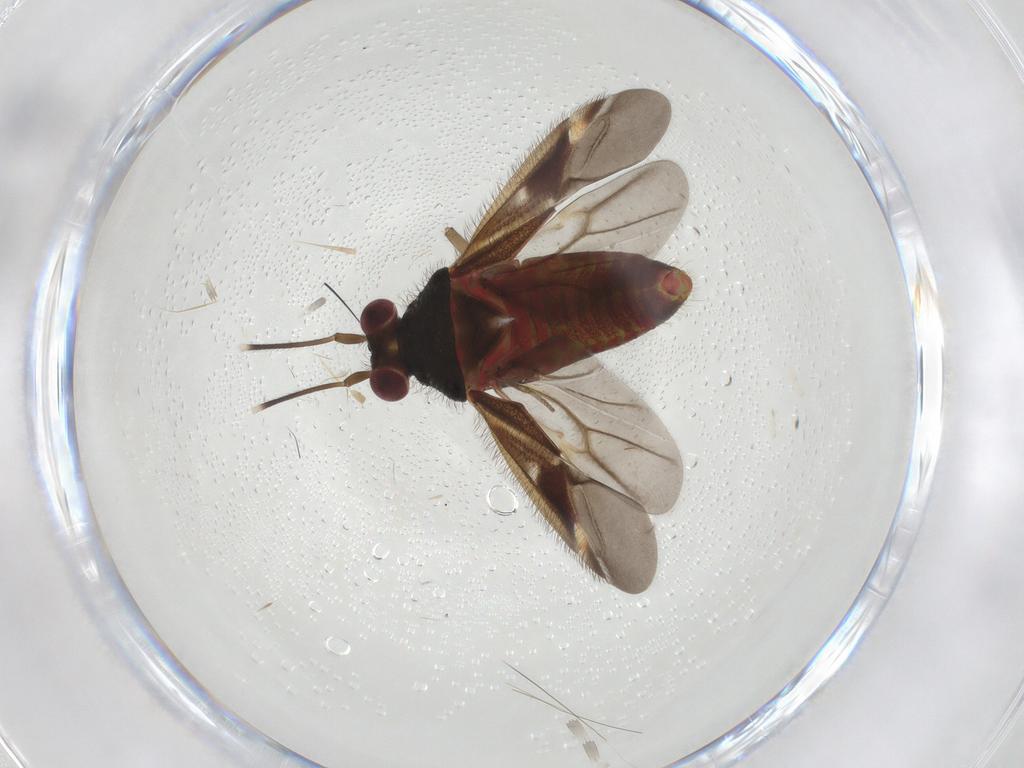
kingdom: Animalia
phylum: Arthropoda
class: Insecta
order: Hemiptera
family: Miridae
